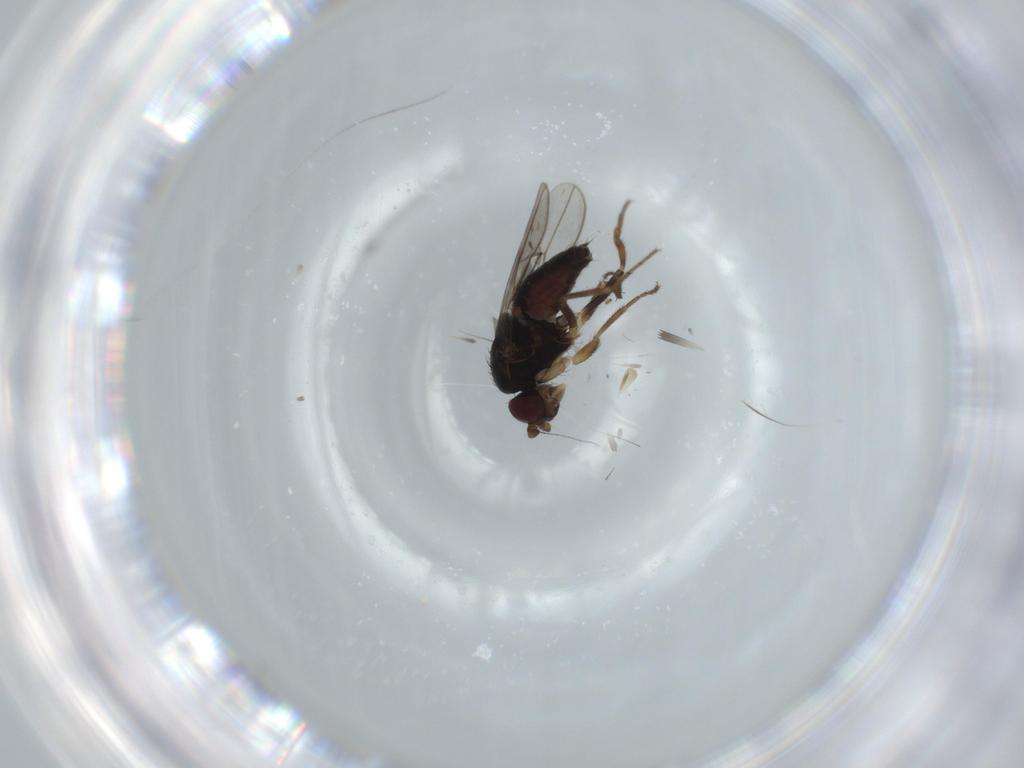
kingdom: Animalia
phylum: Arthropoda
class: Insecta
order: Diptera
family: Sphaeroceridae
